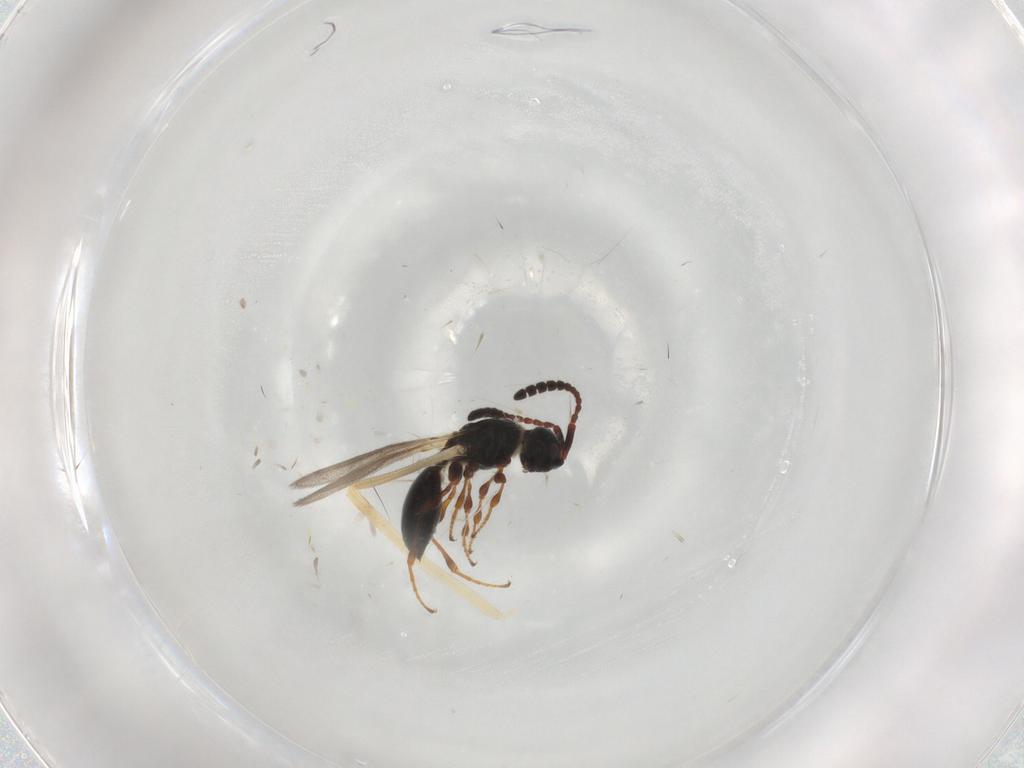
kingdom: Animalia
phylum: Arthropoda
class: Insecta
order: Hymenoptera
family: Diapriidae
